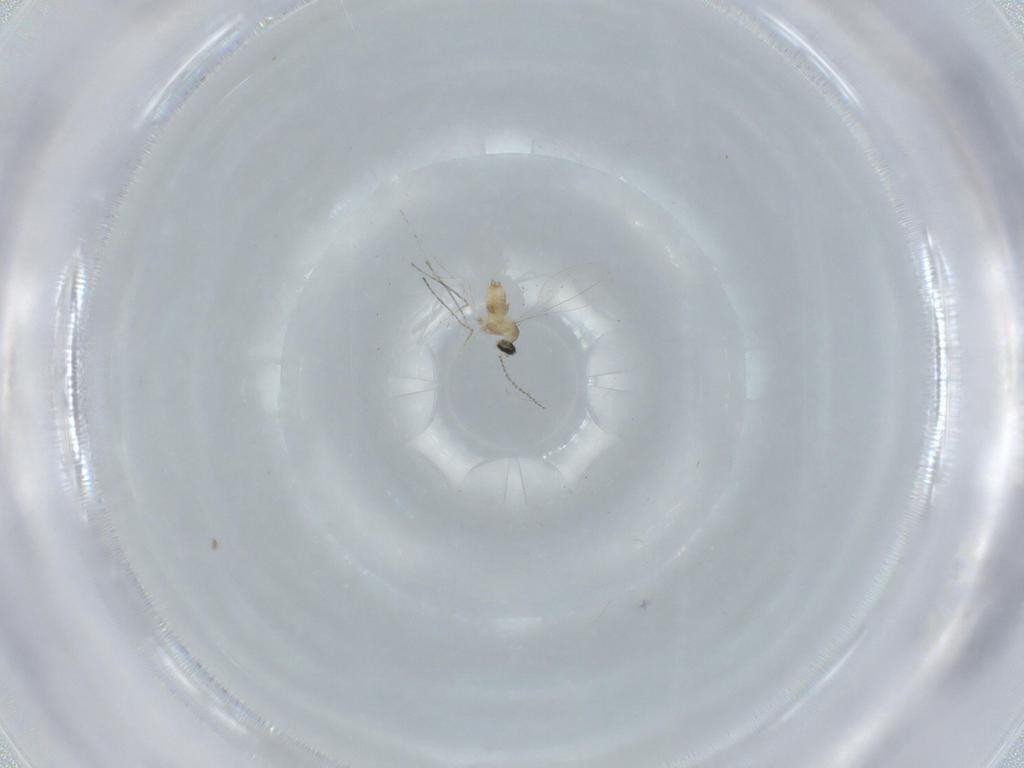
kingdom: Animalia
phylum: Arthropoda
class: Insecta
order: Diptera
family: Cecidomyiidae
